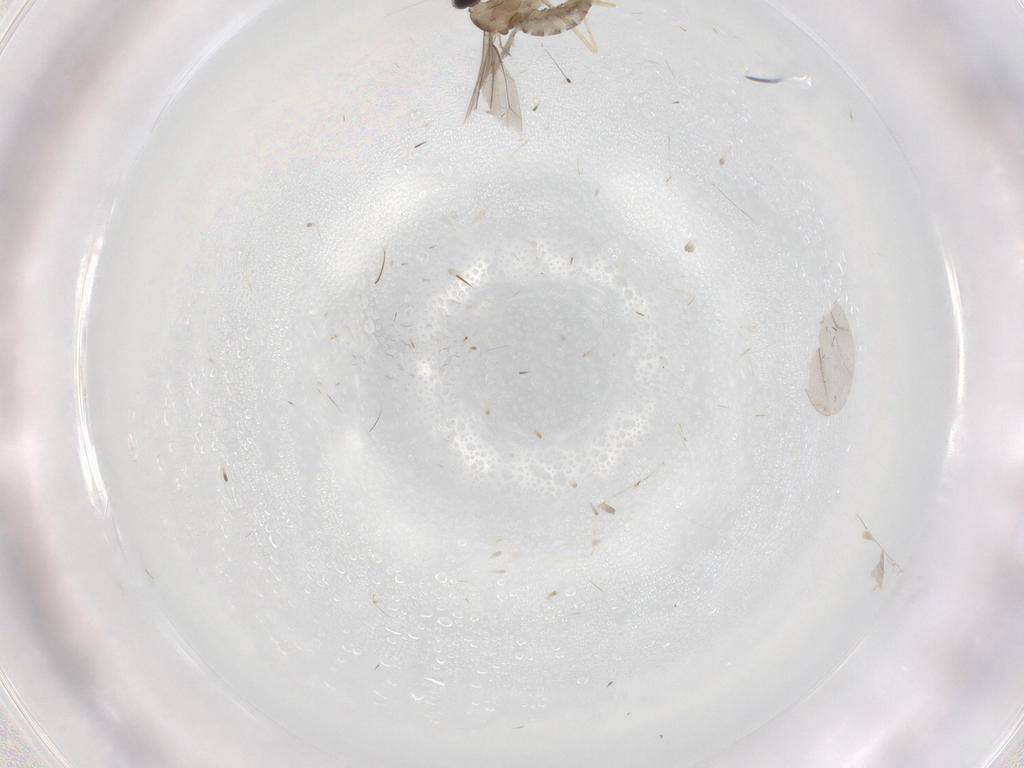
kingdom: Animalia
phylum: Arthropoda
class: Insecta
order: Diptera
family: Cecidomyiidae
